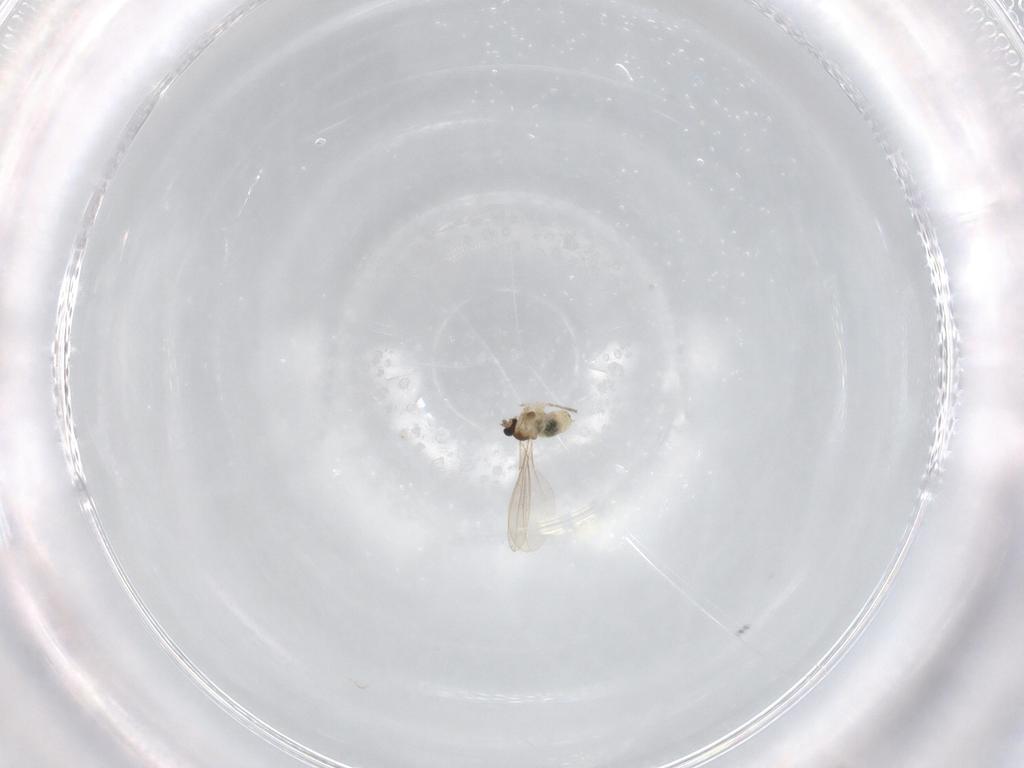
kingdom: Animalia
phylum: Arthropoda
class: Insecta
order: Diptera
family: Cecidomyiidae
